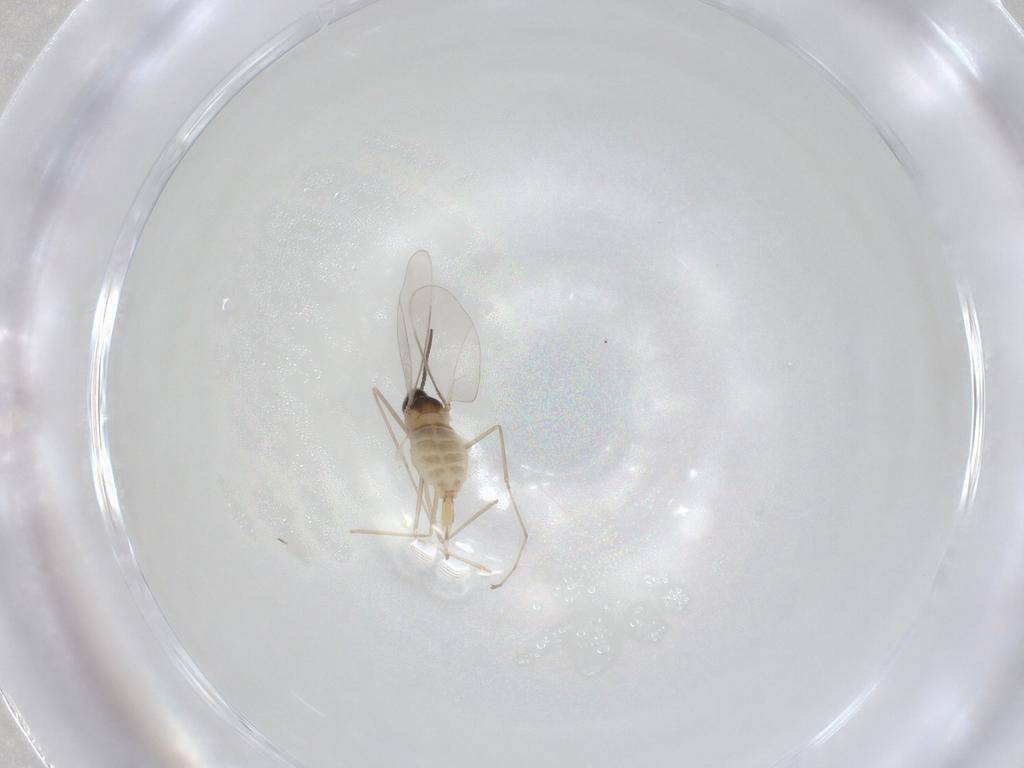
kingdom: Animalia
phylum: Arthropoda
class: Insecta
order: Diptera
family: Cecidomyiidae
